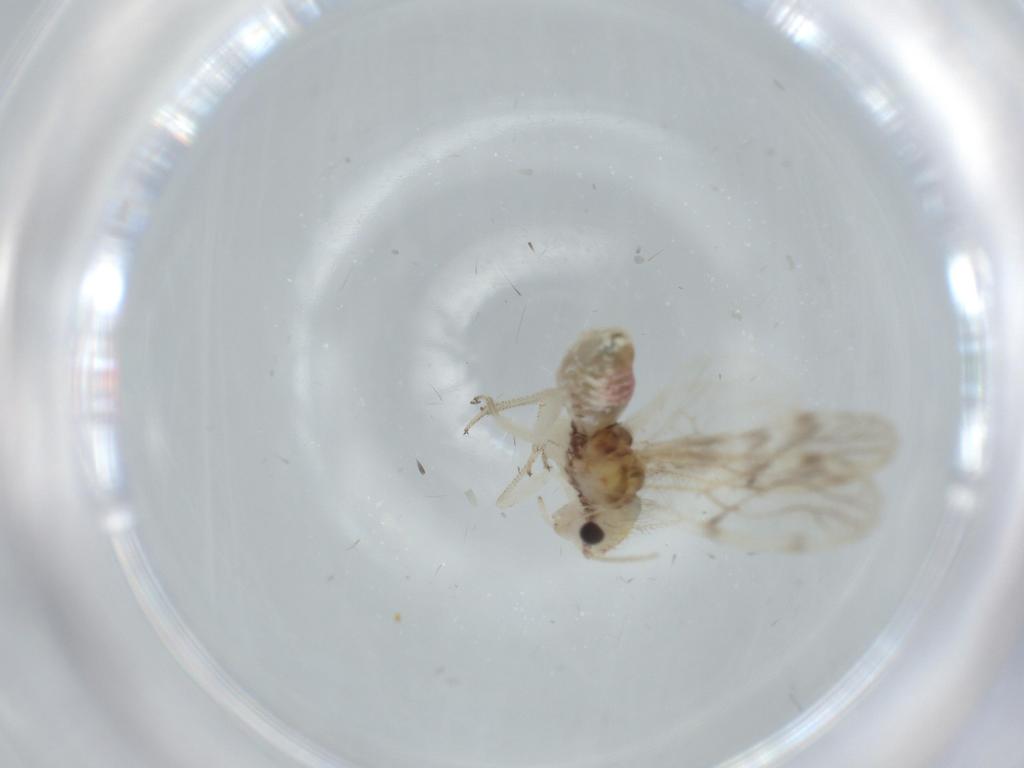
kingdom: Animalia
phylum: Arthropoda
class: Insecta
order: Psocodea
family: Pseudocaeciliidae
